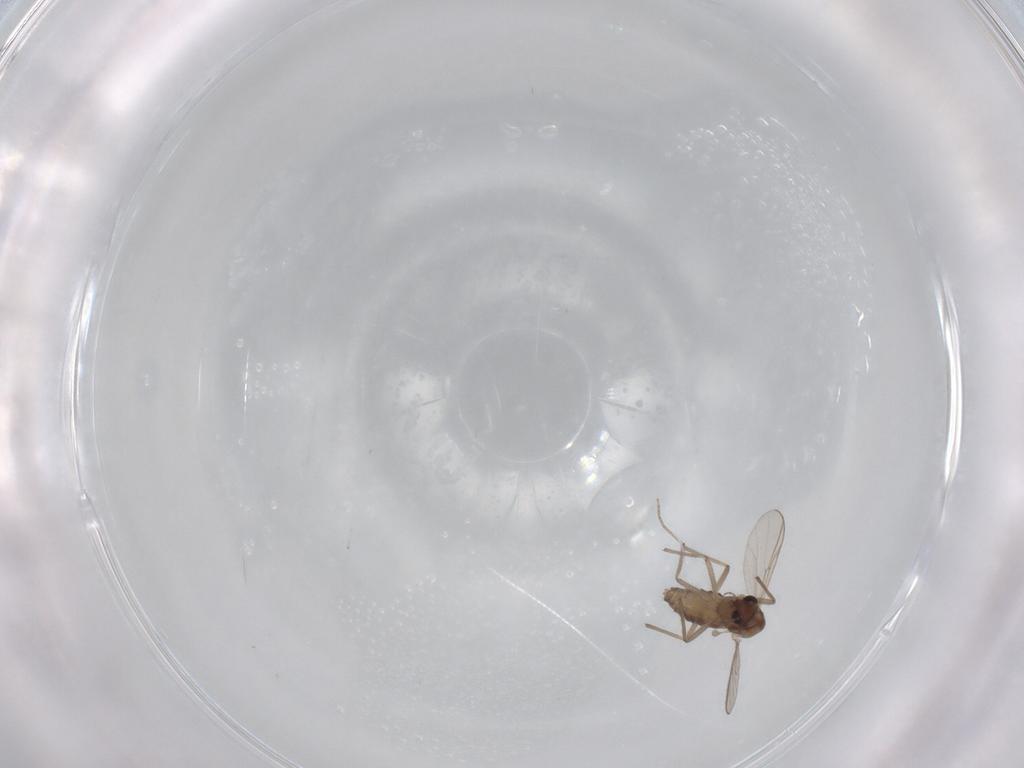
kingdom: Animalia
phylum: Arthropoda
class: Insecta
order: Diptera
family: Chironomidae
